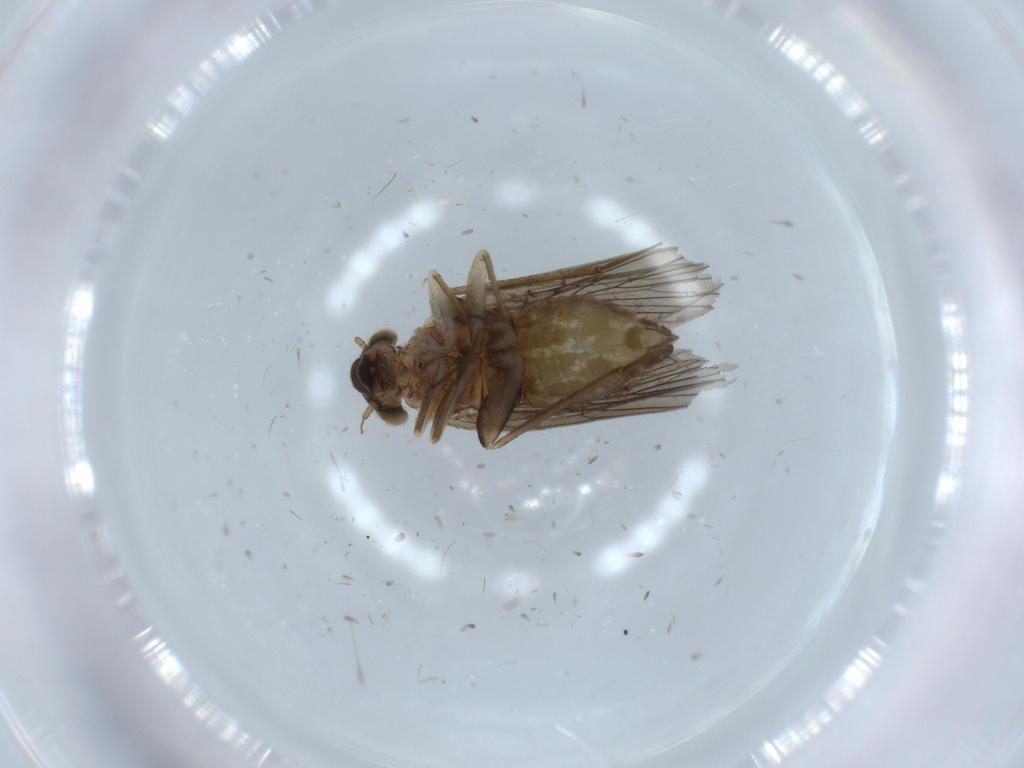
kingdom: Animalia
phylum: Arthropoda
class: Insecta
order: Psocodea
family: Lepidopsocidae
